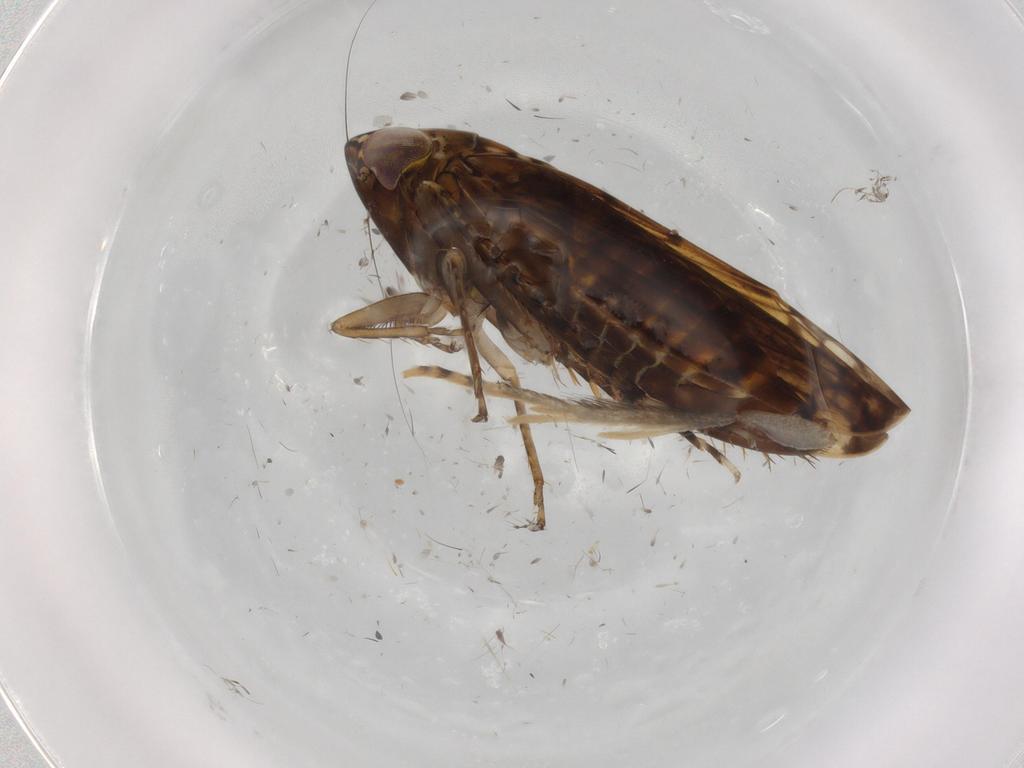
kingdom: Animalia
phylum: Arthropoda
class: Insecta
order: Hemiptera
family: Cicadellidae
